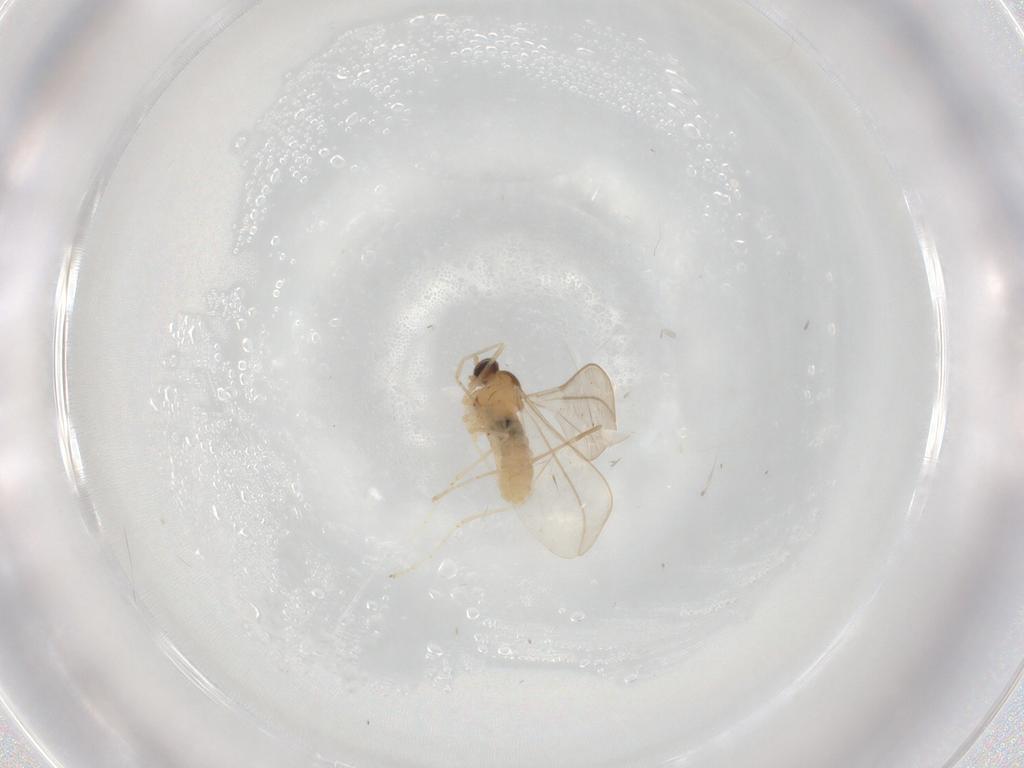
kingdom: Animalia
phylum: Arthropoda
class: Insecta
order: Diptera
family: Cecidomyiidae
